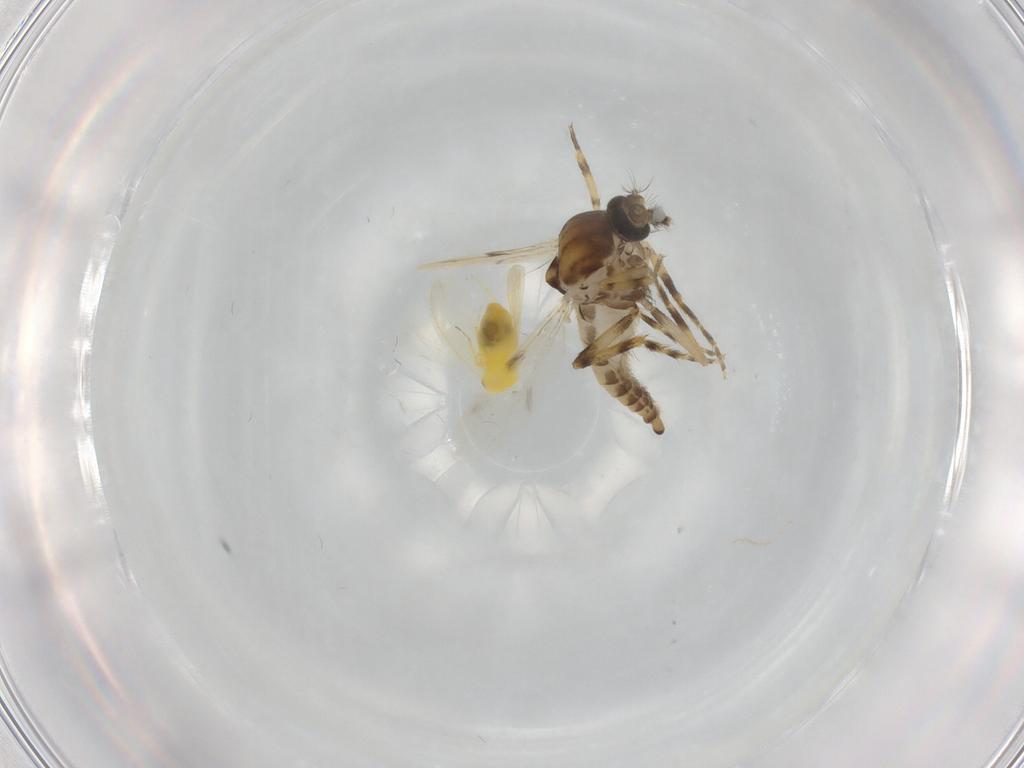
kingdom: Animalia
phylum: Arthropoda
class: Insecta
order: Diptera
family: Ceratopogonidae
